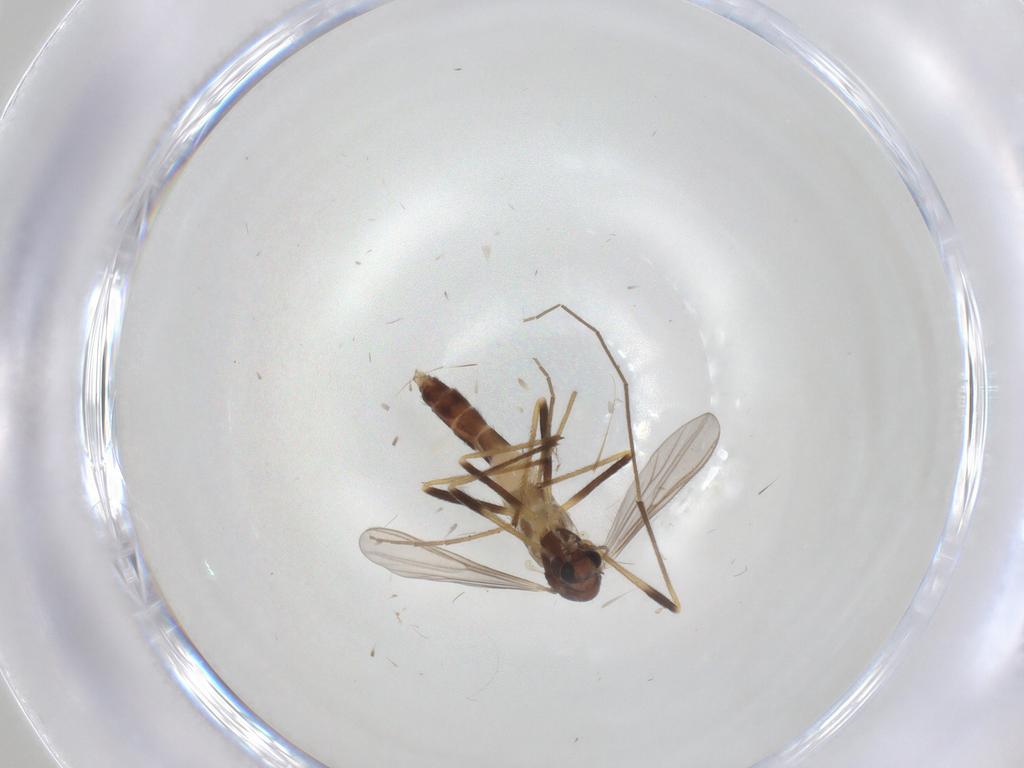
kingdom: Animalia
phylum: Arthropoda
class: Insecta
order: Diptera
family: Chironomidae
